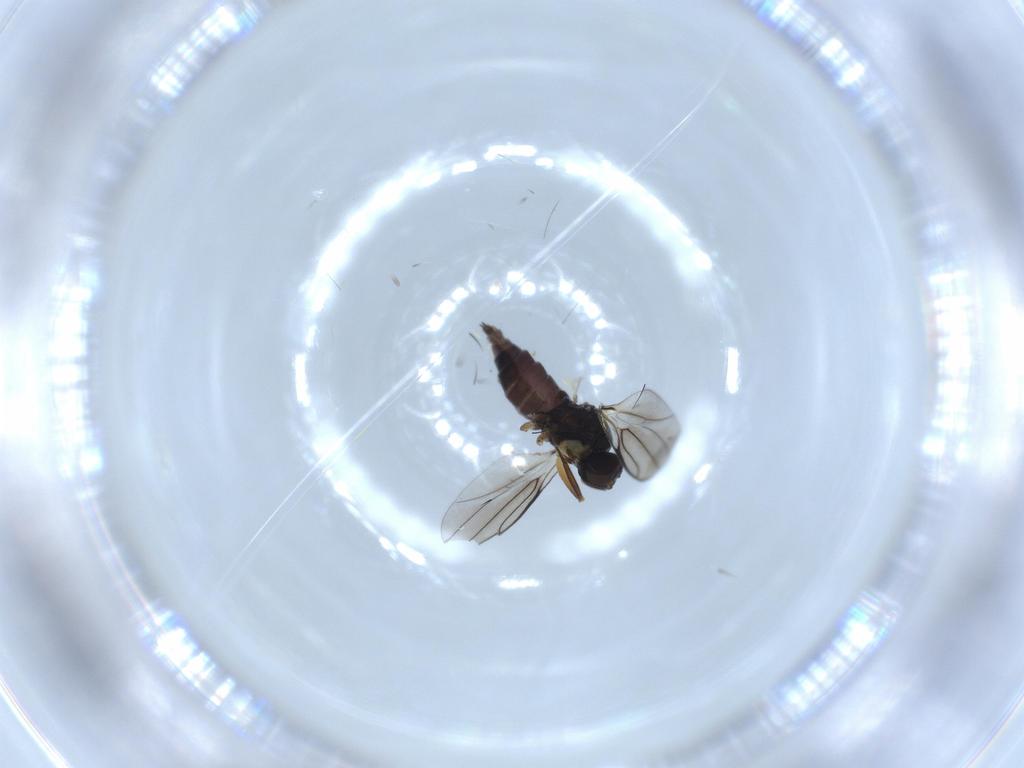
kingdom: Animalia
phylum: Arthropoda
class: Insecta
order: Diptera
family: Hybotidae
